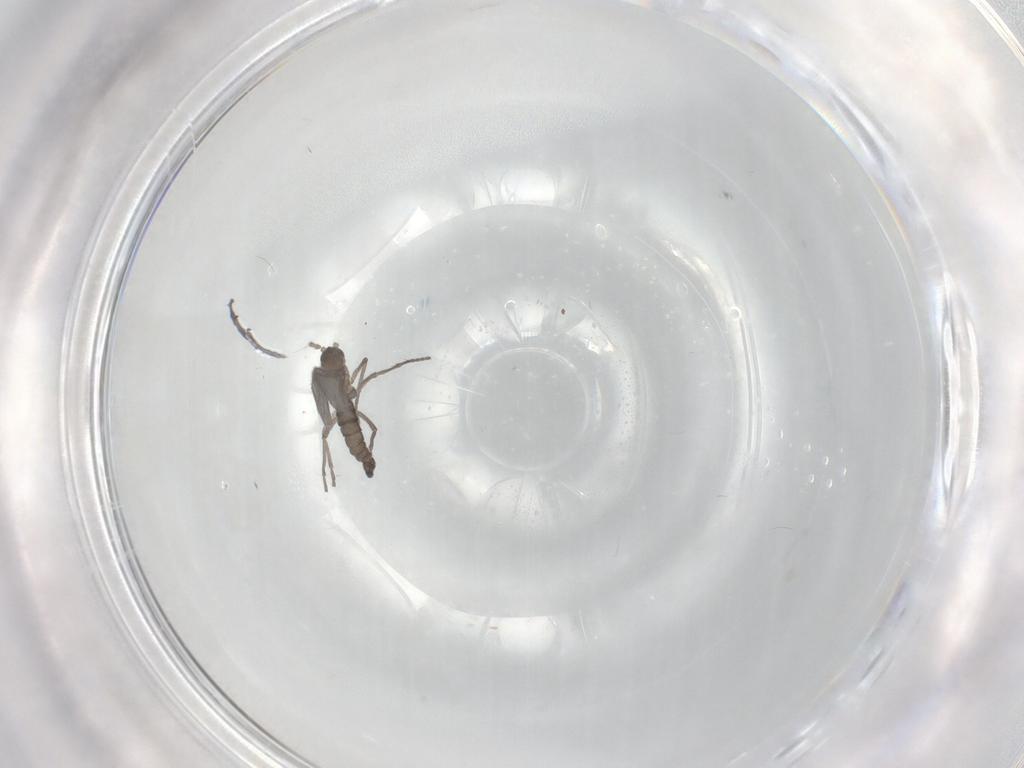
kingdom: Animalia
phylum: Arthropoda
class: Insecta
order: Diptera
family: Sciaridae
